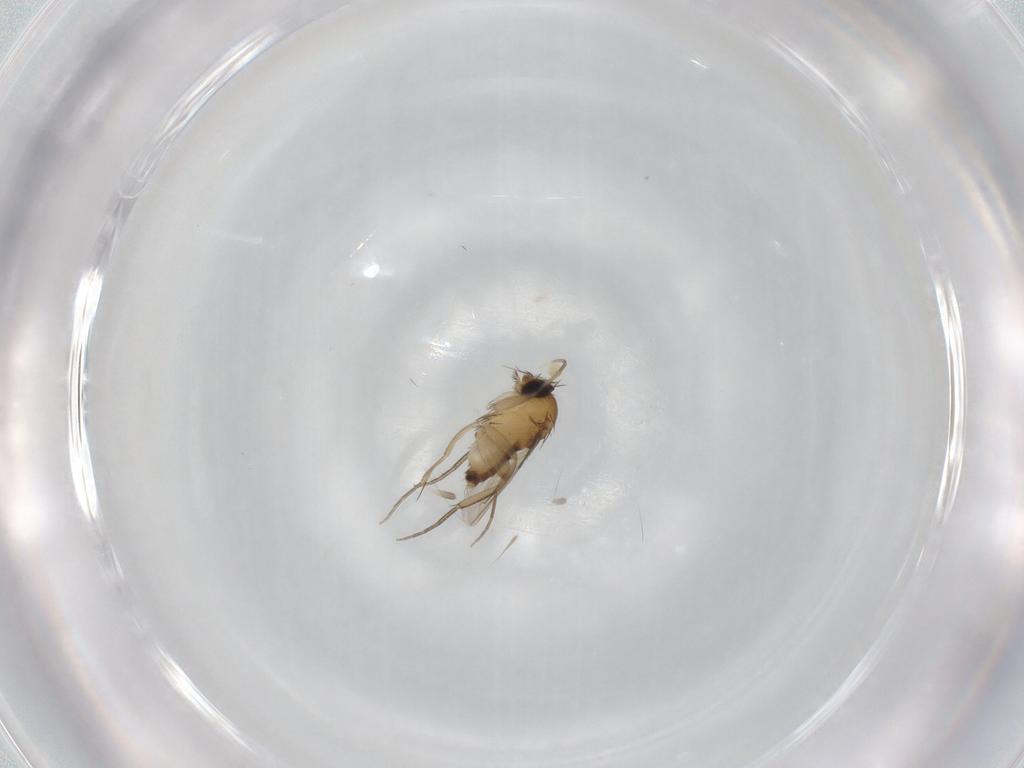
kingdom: Animalia
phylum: Arthropoda
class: Insecta
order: Diptera
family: Phoridae
